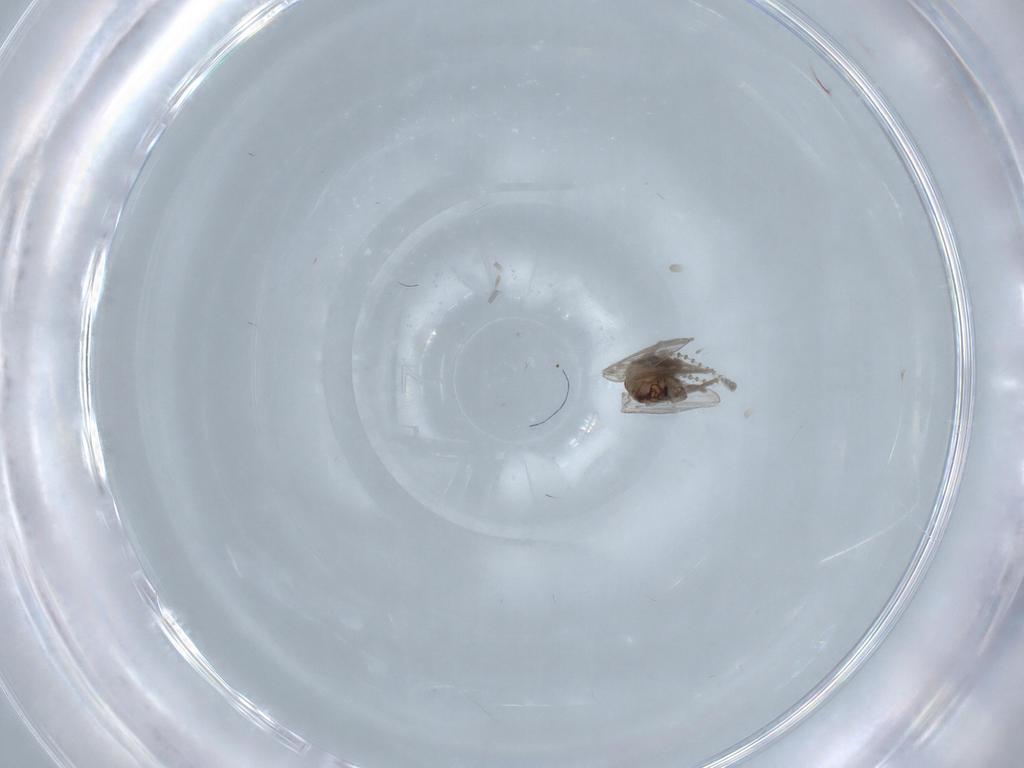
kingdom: Animalia
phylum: Arthropoda
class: Insecta
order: Diptera
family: Psychodidae
